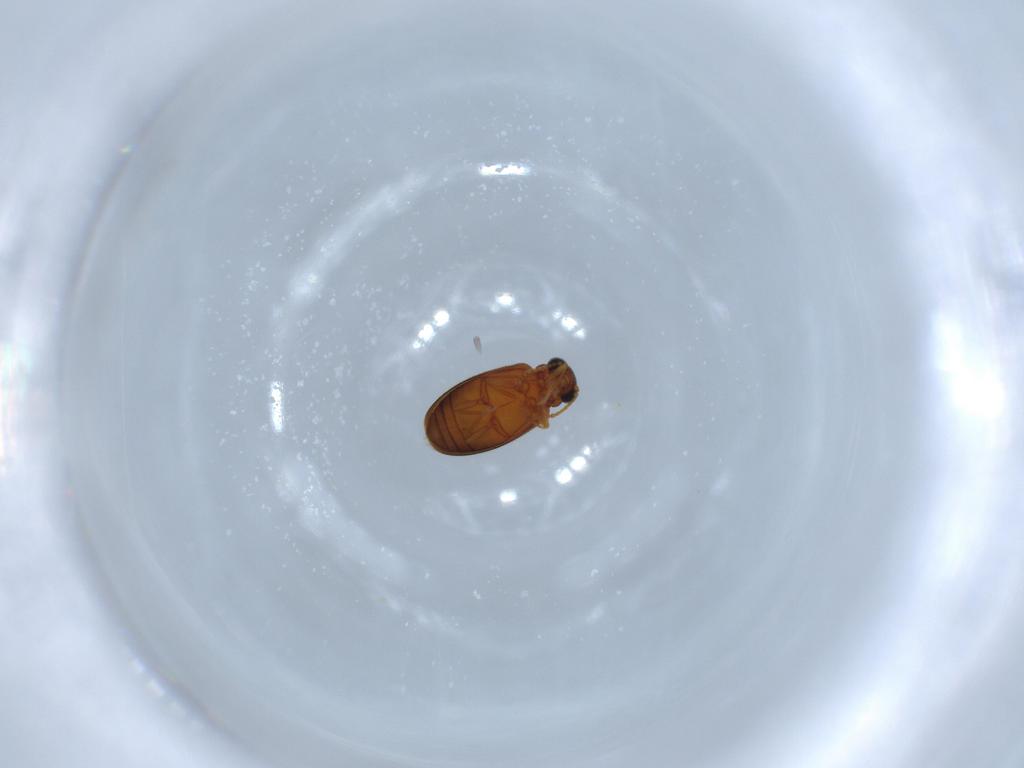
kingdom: Animalia
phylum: Arthropoda
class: Insecta
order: Coleoptera
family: Aderidae
